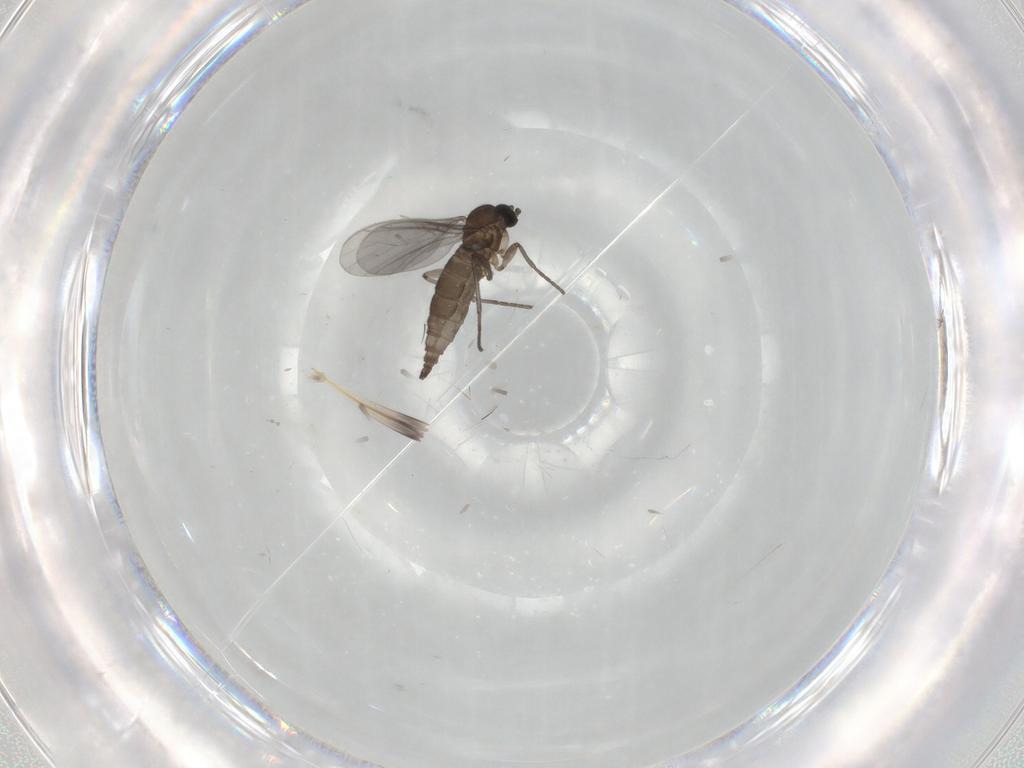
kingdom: Animalia
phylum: Arthropoda
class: Insecta
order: Diptera
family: Sciaridae
